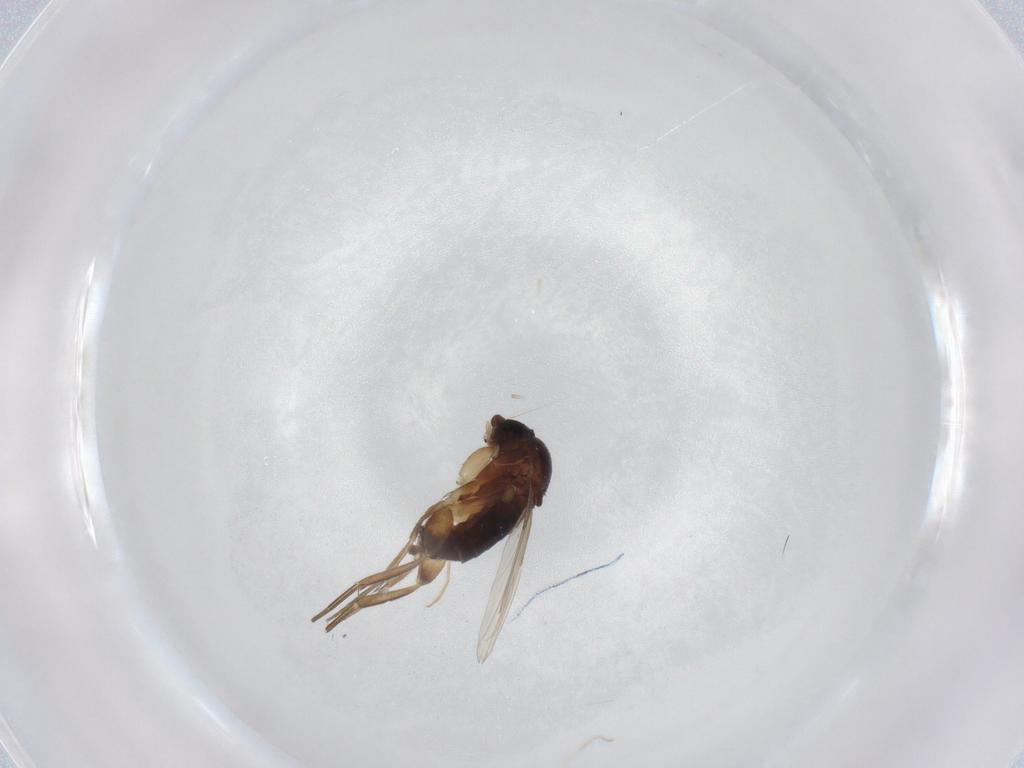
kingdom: Animalia
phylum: Arthropoda
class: Insecta
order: Diptera
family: Phoridae
